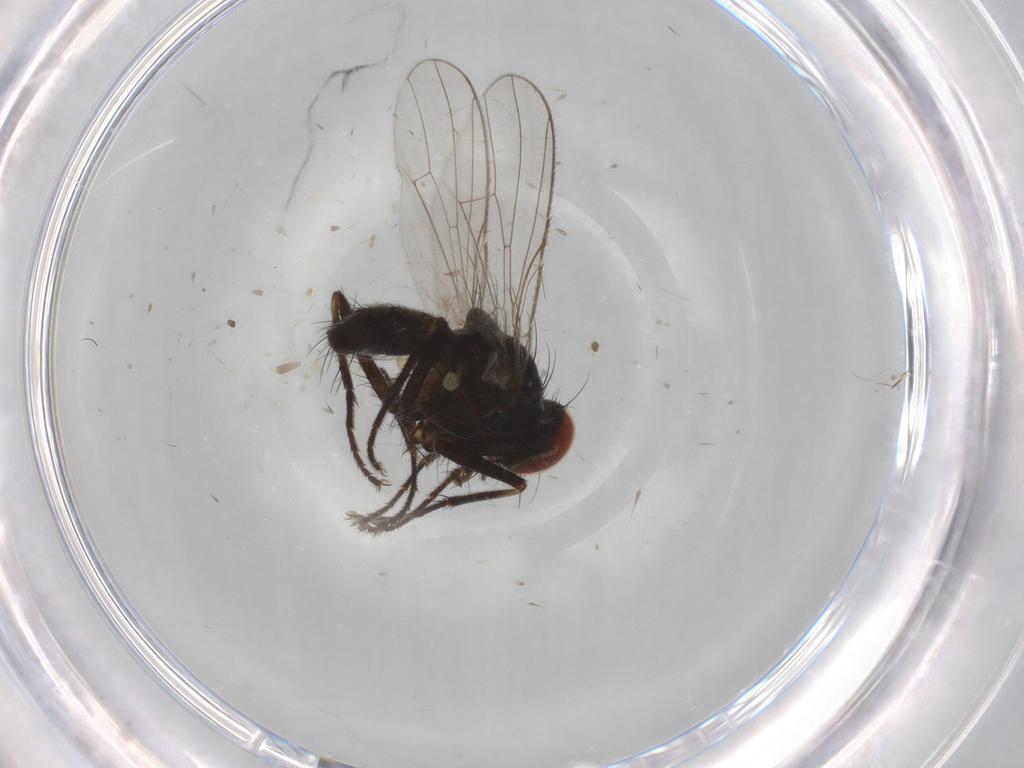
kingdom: Animalia
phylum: Arthropoda
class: Insecta
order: Diptera
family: Muscidae
